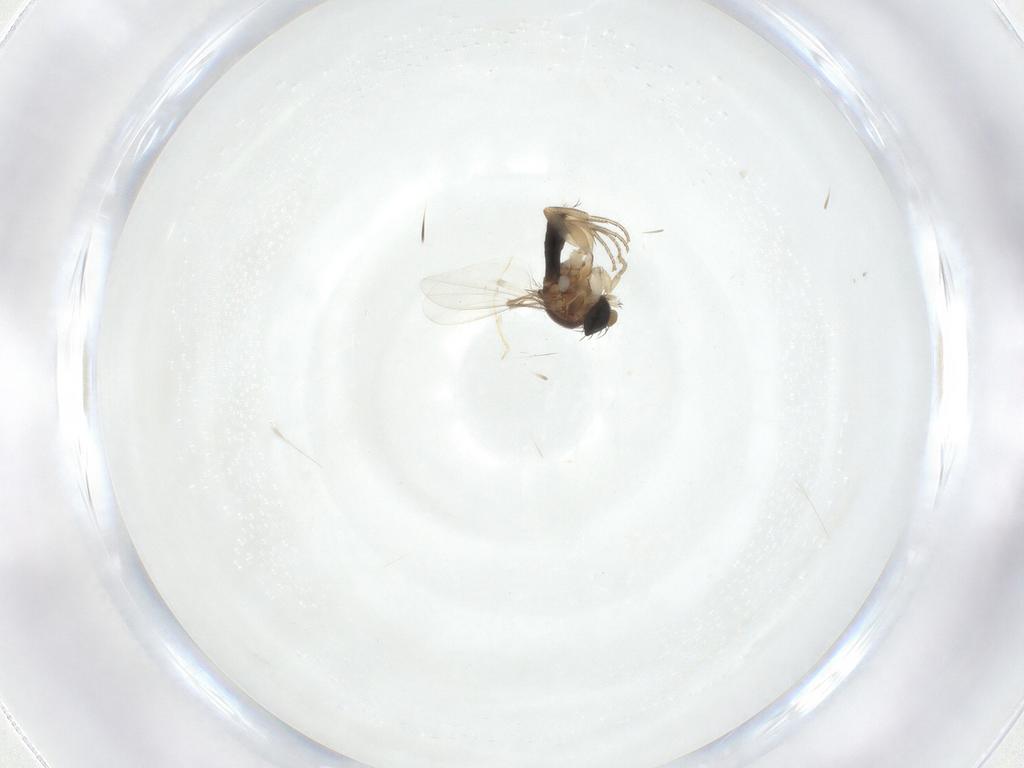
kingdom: Animalia
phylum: Arthropoda
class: Insecta
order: Diptera
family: Phoridae
